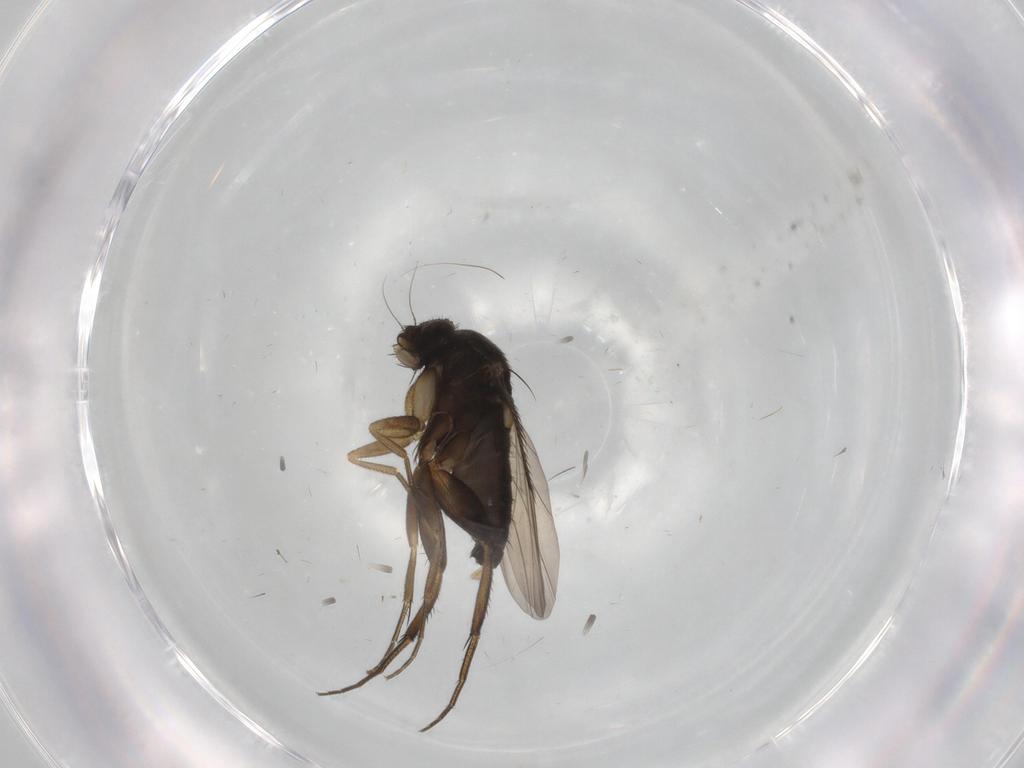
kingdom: Animalia
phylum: Arthropoda
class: Insecta
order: Diptera
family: Phoridae
